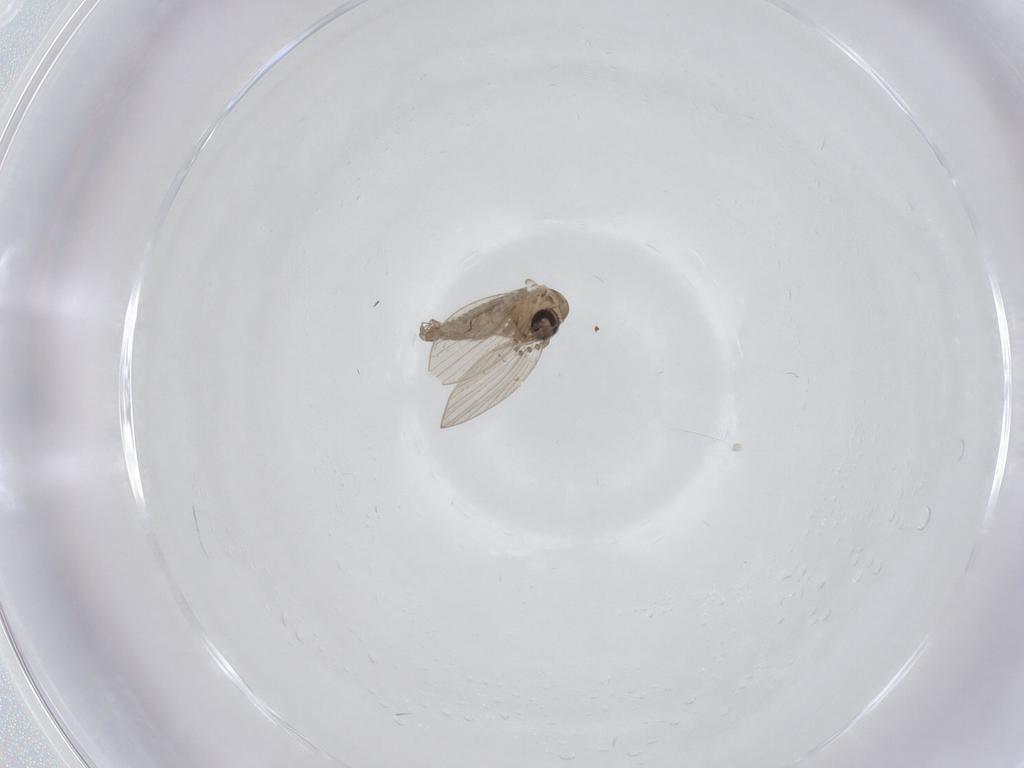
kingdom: Animalia
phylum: Arthropoda
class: Insecta
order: Diptera
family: Psychodidae
